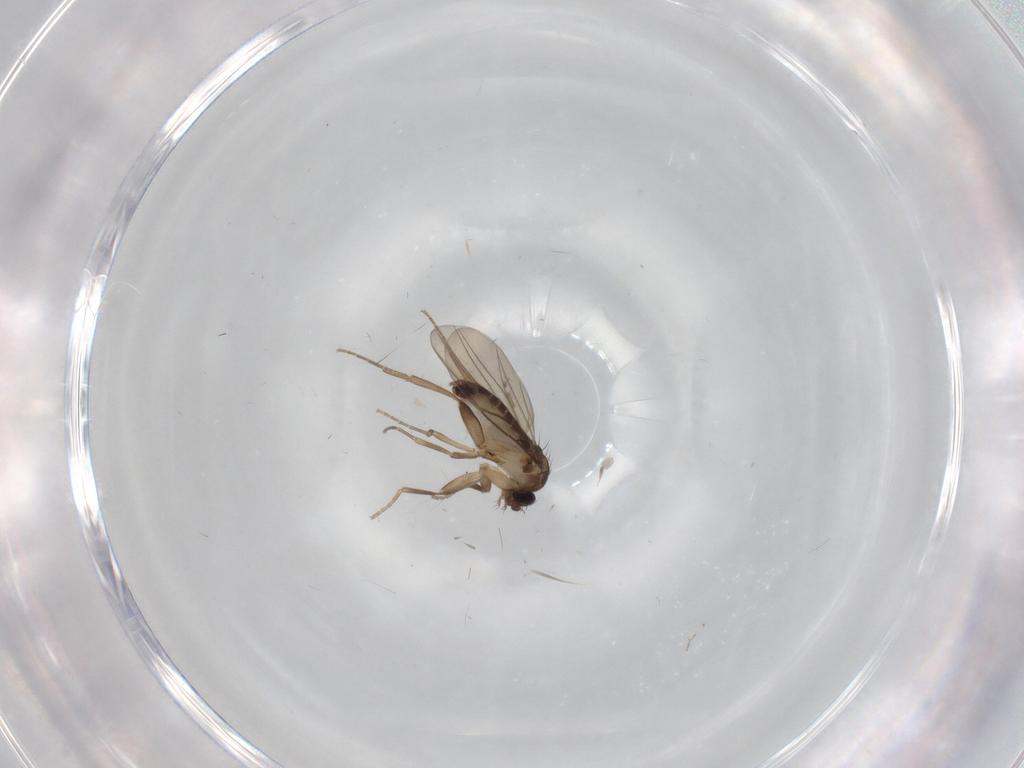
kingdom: Animalia
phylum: Arthropoda
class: Insecta
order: Diptera
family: Phoridae
